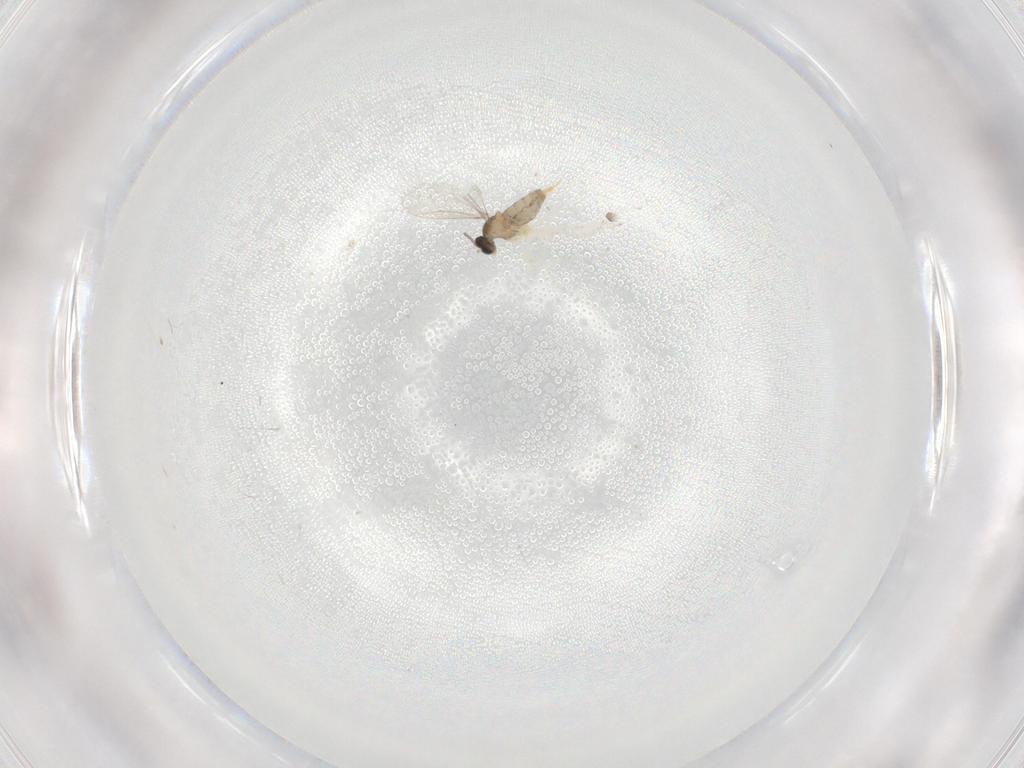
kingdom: Animalia
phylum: Arthropoda
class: Insecta
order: Diptera
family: Cecidomyiidae
